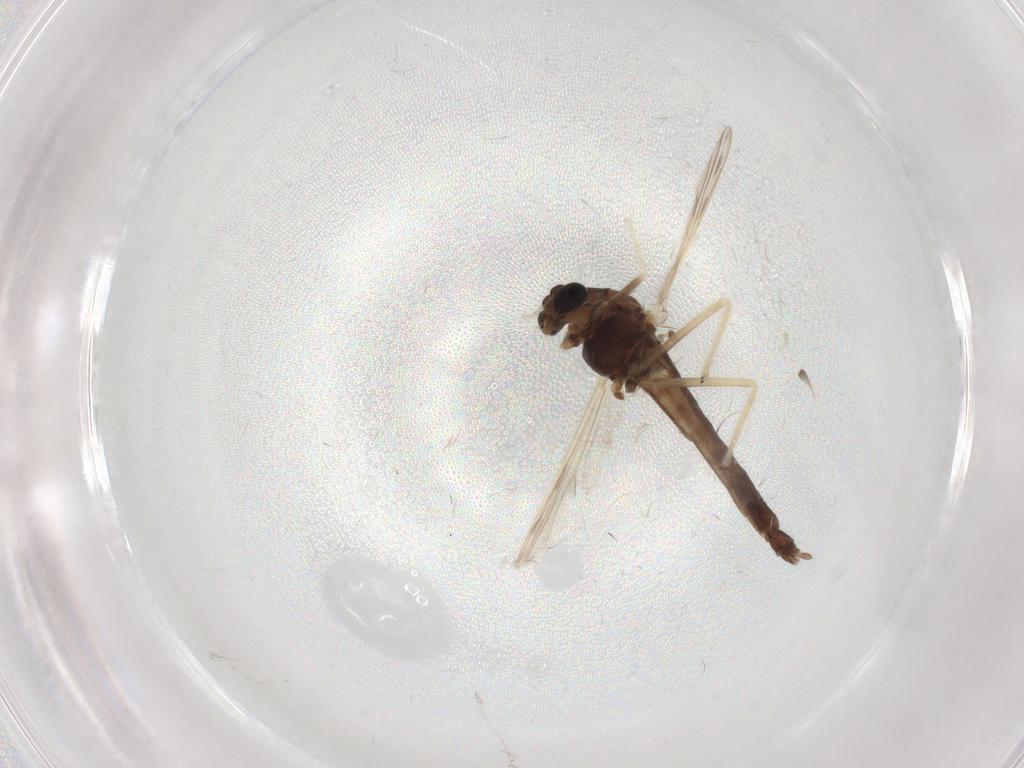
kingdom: Animalia
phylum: Arthropoda
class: Insecta
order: Diptera
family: Chironomidae
